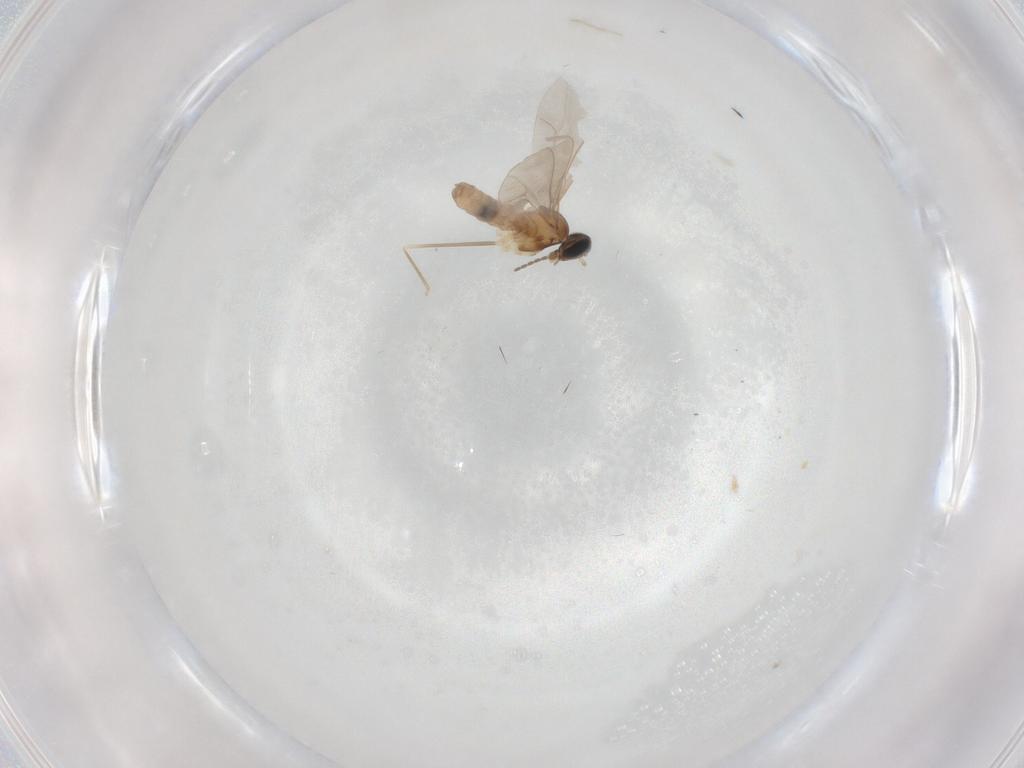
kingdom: Animalia
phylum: Arthropoda
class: Insecta
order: Diptera
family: Cecidomyiidae
